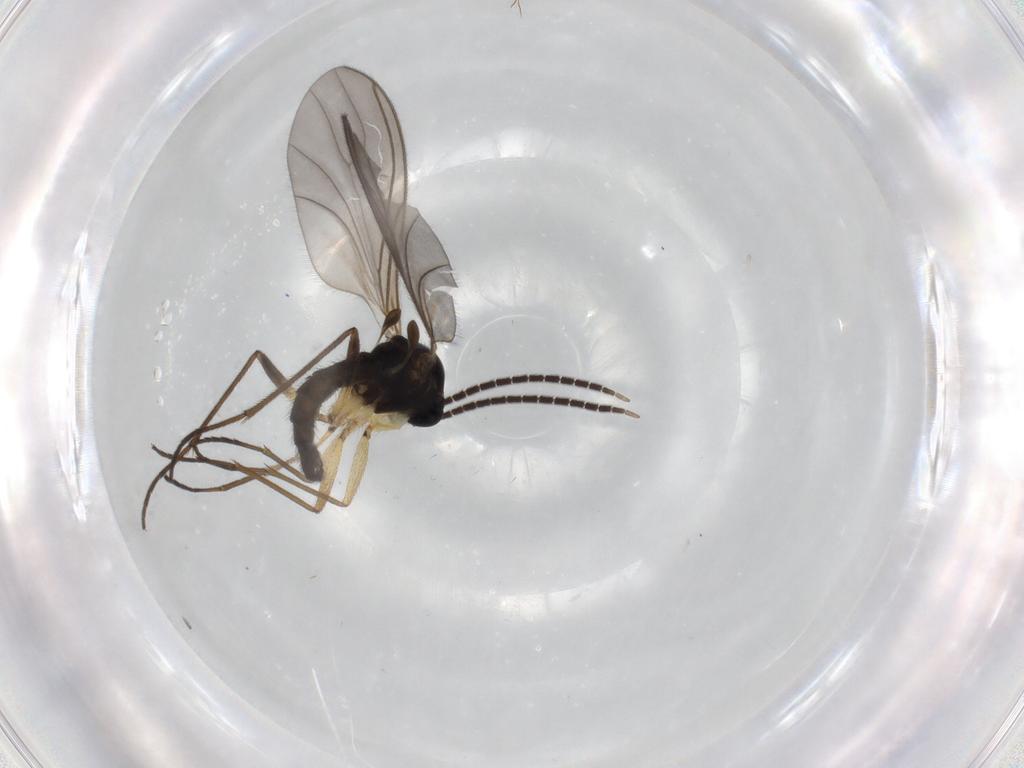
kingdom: Animalia
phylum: Arthropoda
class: Insecta
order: Diptera
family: Sciaridae
